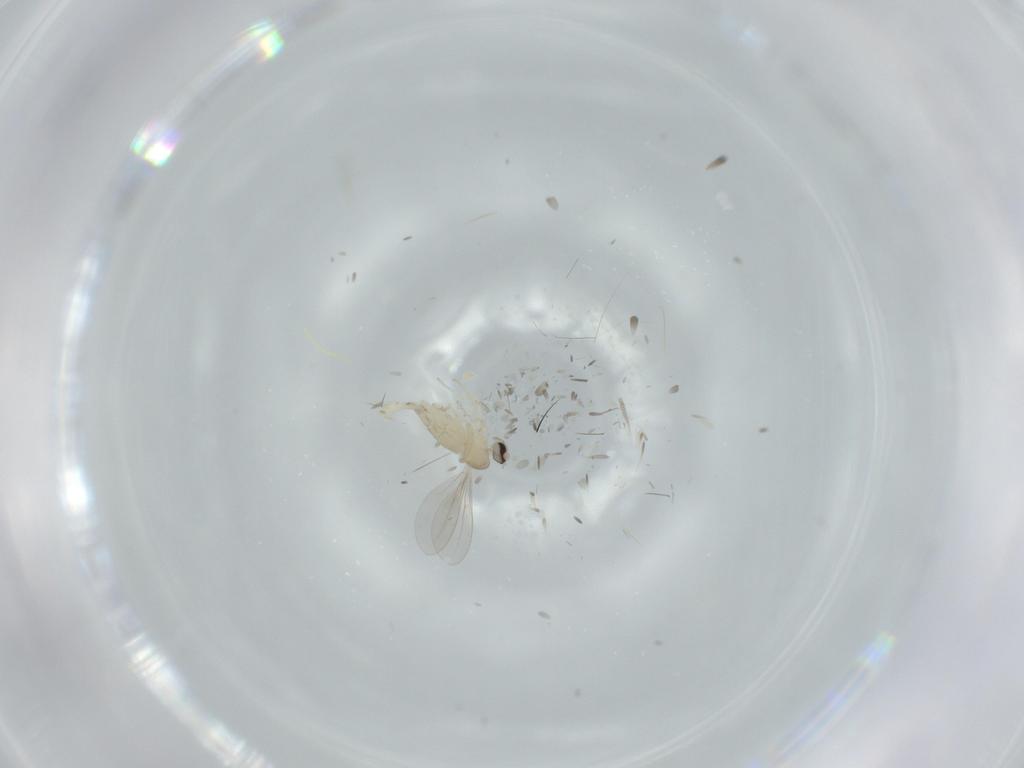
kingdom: Animalia
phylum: Arthropoda
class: Insecta
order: Diptera
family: Cecidomyiidae
